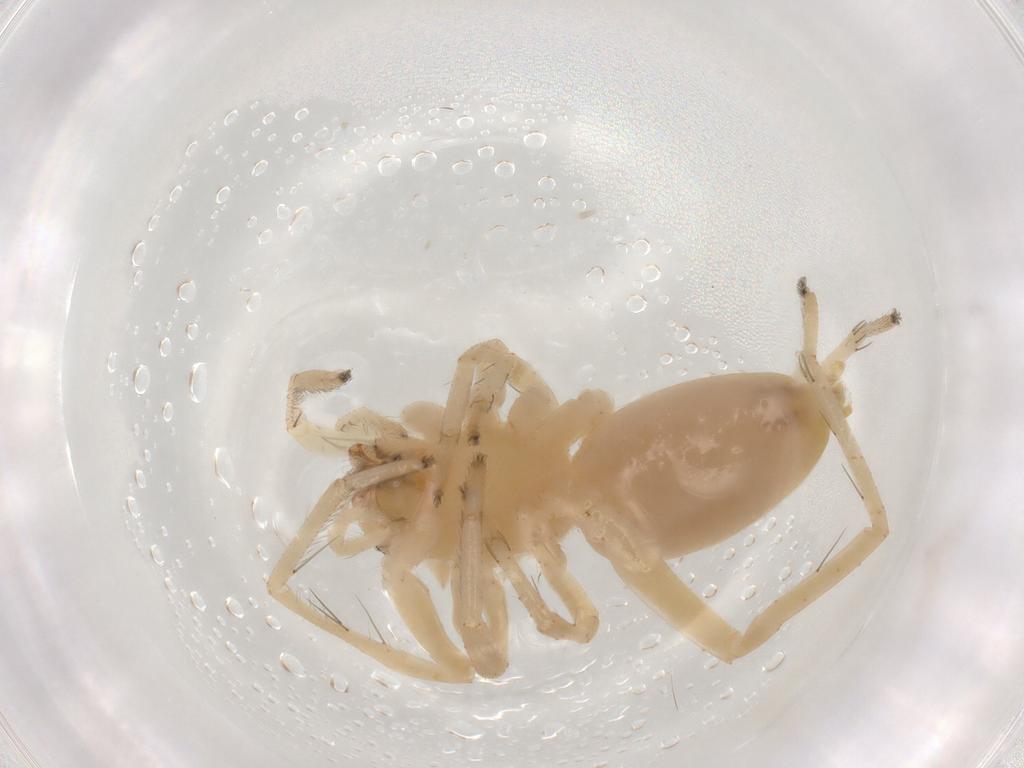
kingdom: Animalia
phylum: Arthropoda
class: Arachnida
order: Araneae
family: Anyphaenidae
